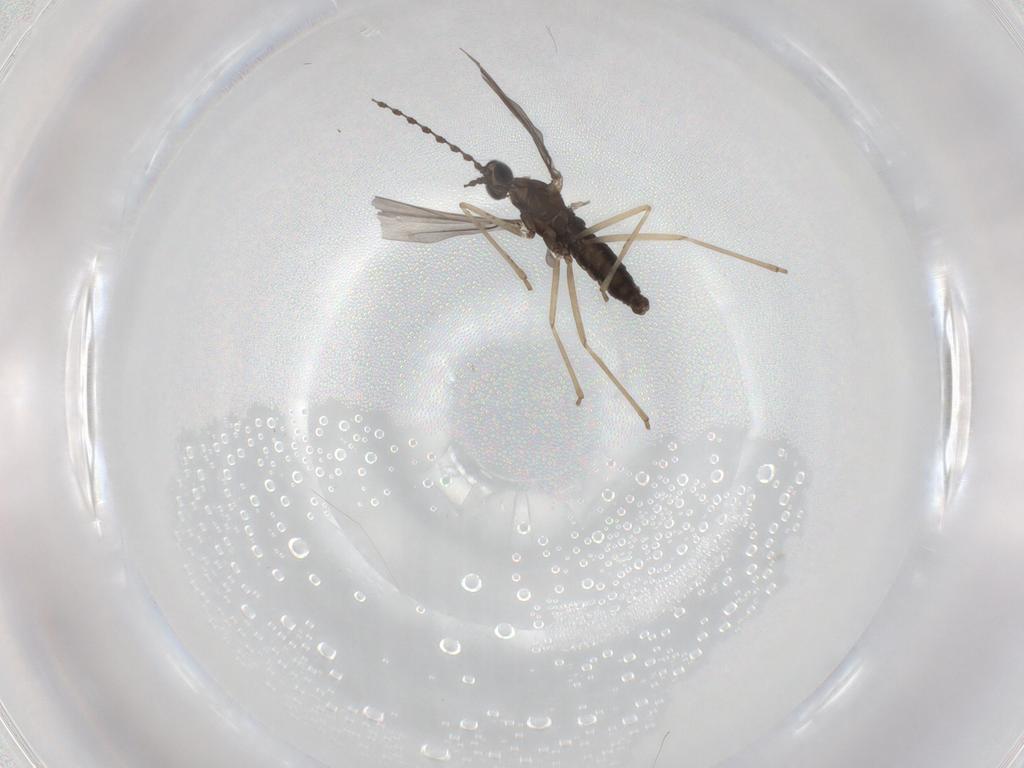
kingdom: Animalia
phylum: Arthropoda
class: Insecta
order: Diptera
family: Cecidomyiidae
